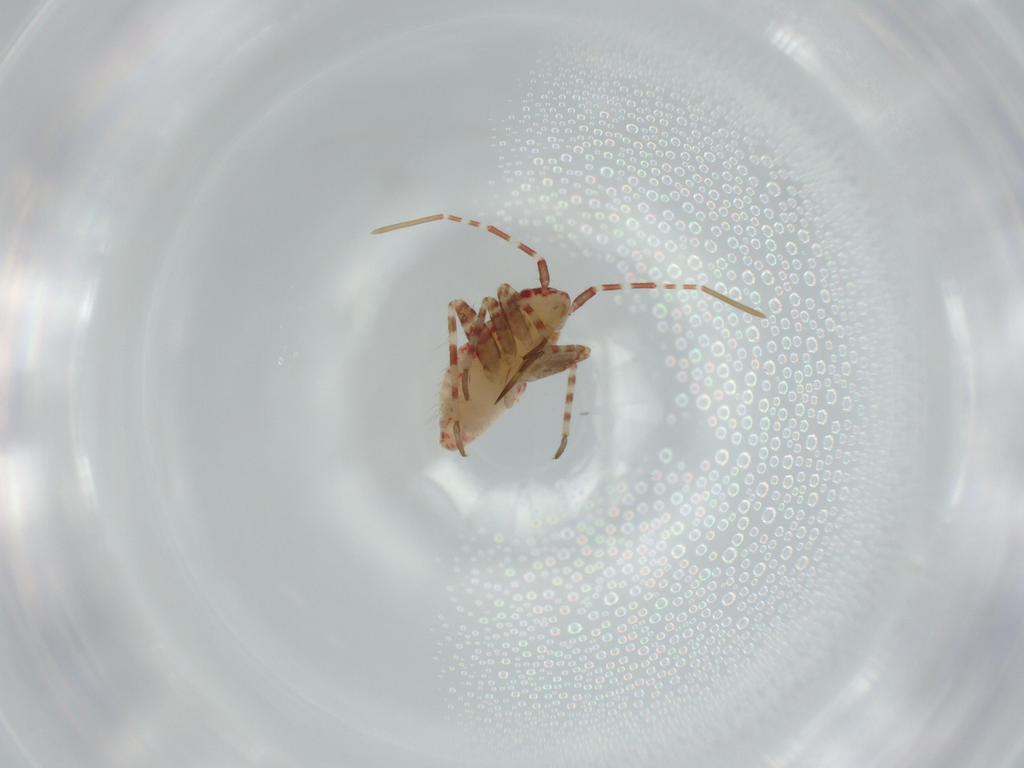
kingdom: Animalia
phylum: Arthropoda
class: Insecta
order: Hemiptera
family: Miridae
